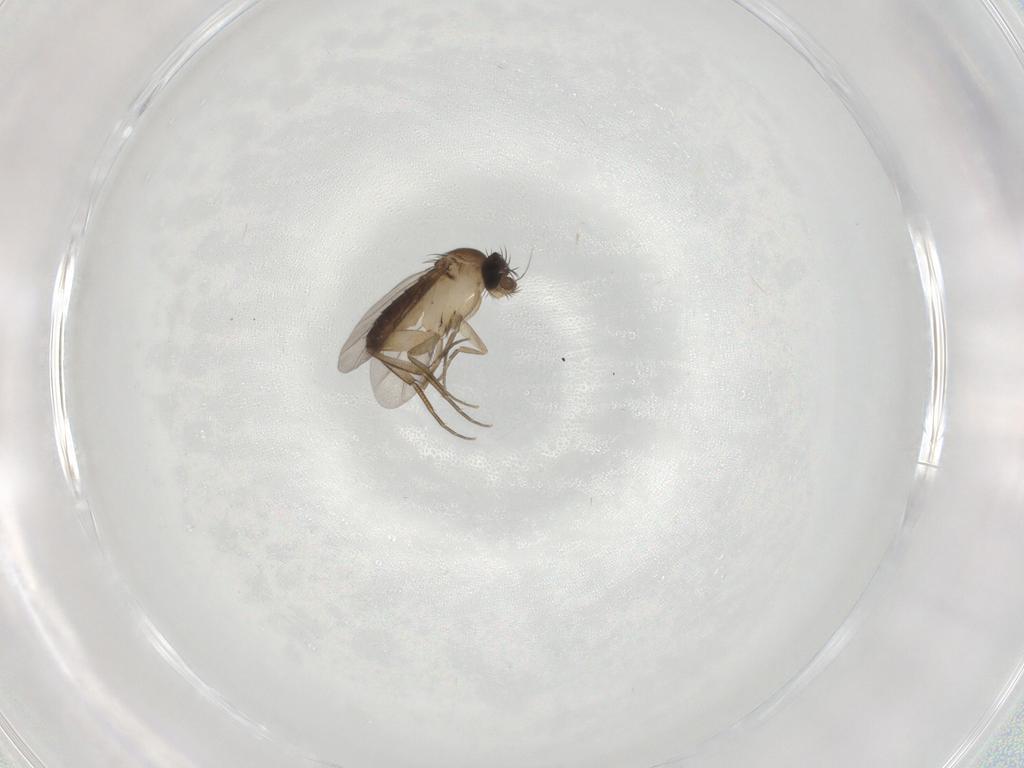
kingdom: Animalia
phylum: Arthropoda
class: Insecta
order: Diptera
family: Phoridae
